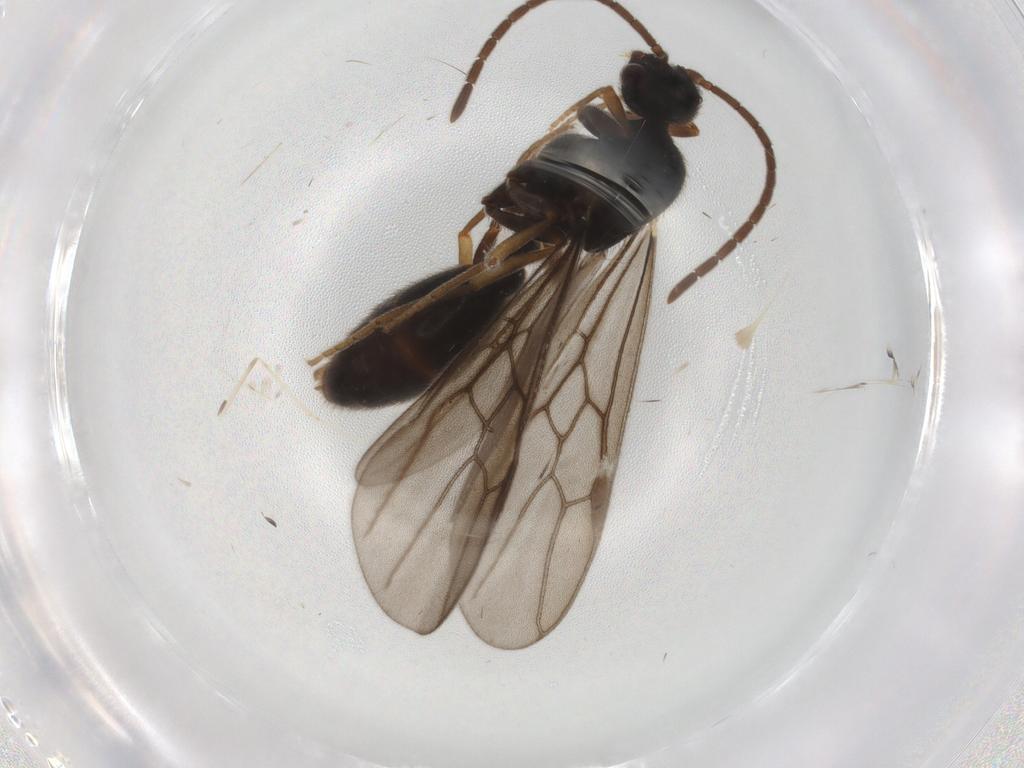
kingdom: Animalia
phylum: Arthropoda
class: Insecta
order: Hymenoptera
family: Formicidae
